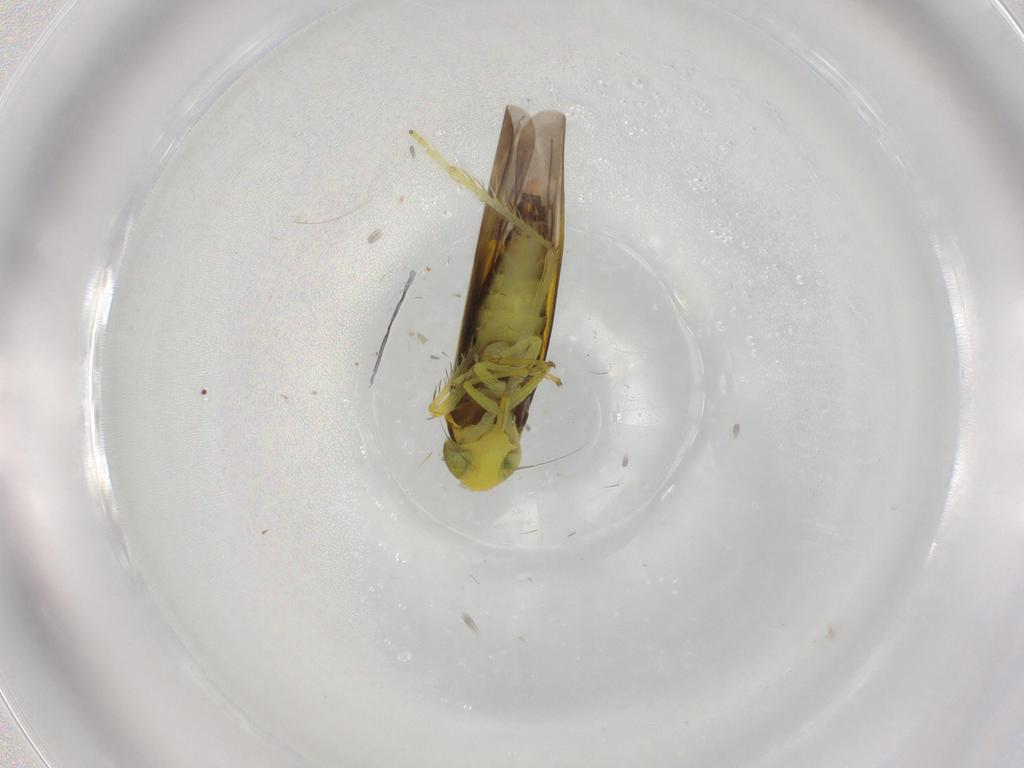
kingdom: Animalia
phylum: Arthropoda
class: Insecta
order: Hemiptera
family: Cicadellidae
